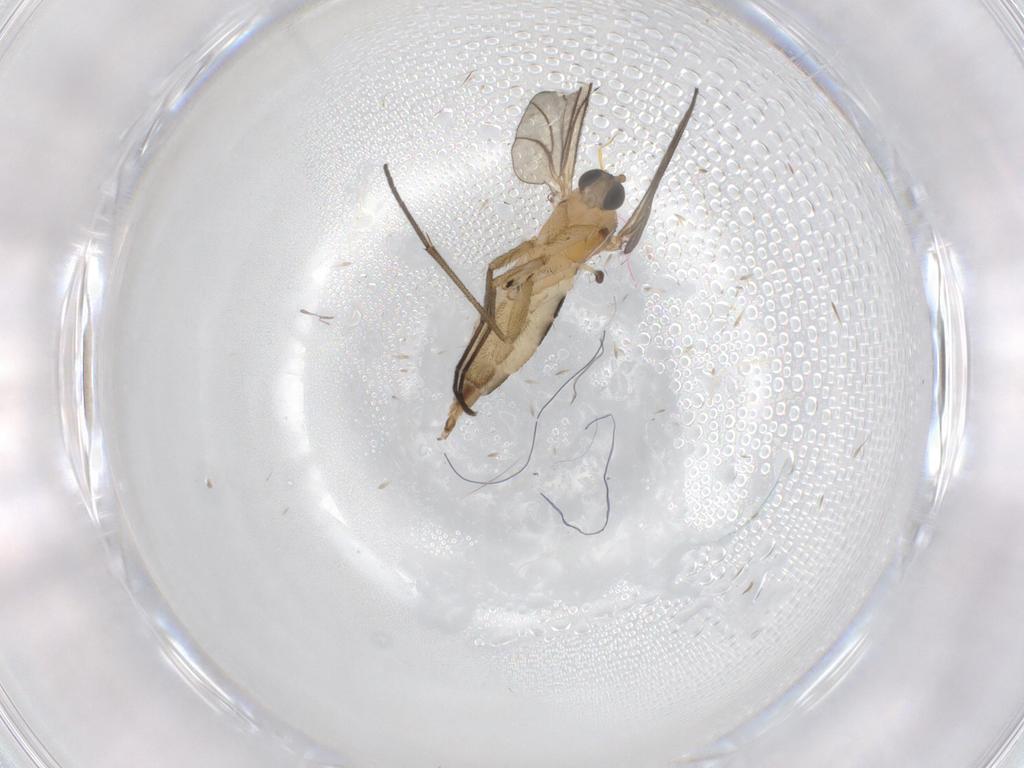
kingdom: Animalia
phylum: Arthropoda
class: Insecta
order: Diptera
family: Cecidomyiidae
